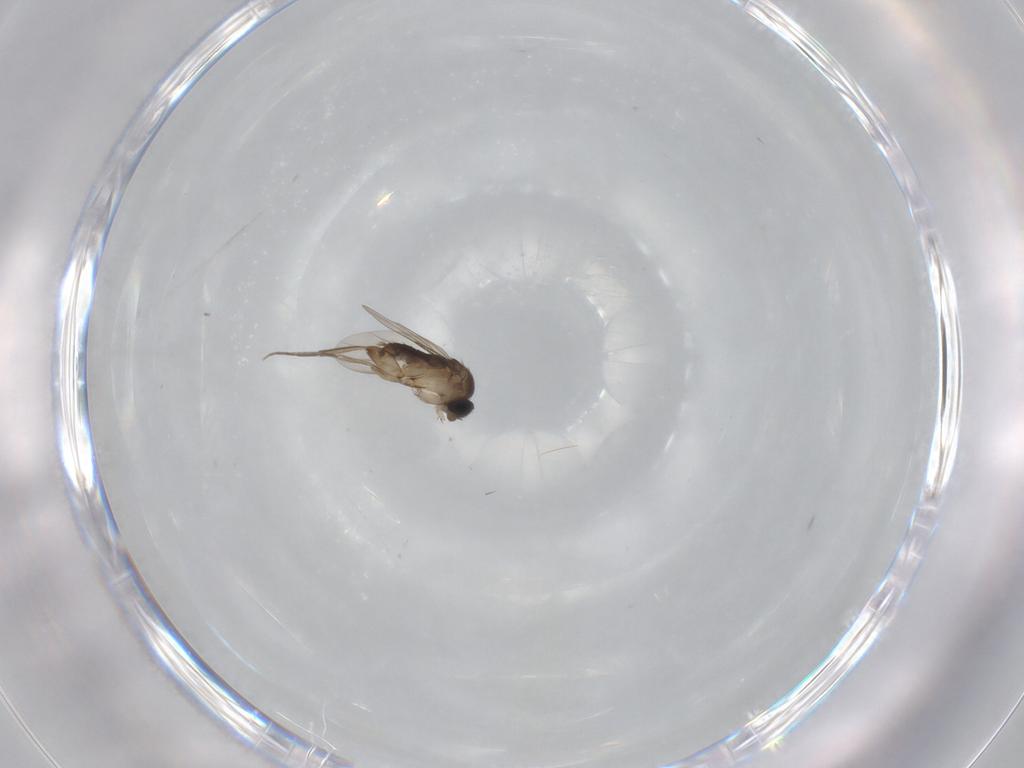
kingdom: Animalia
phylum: Arthropoda
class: Insecta
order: Diptera
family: Phoridae
